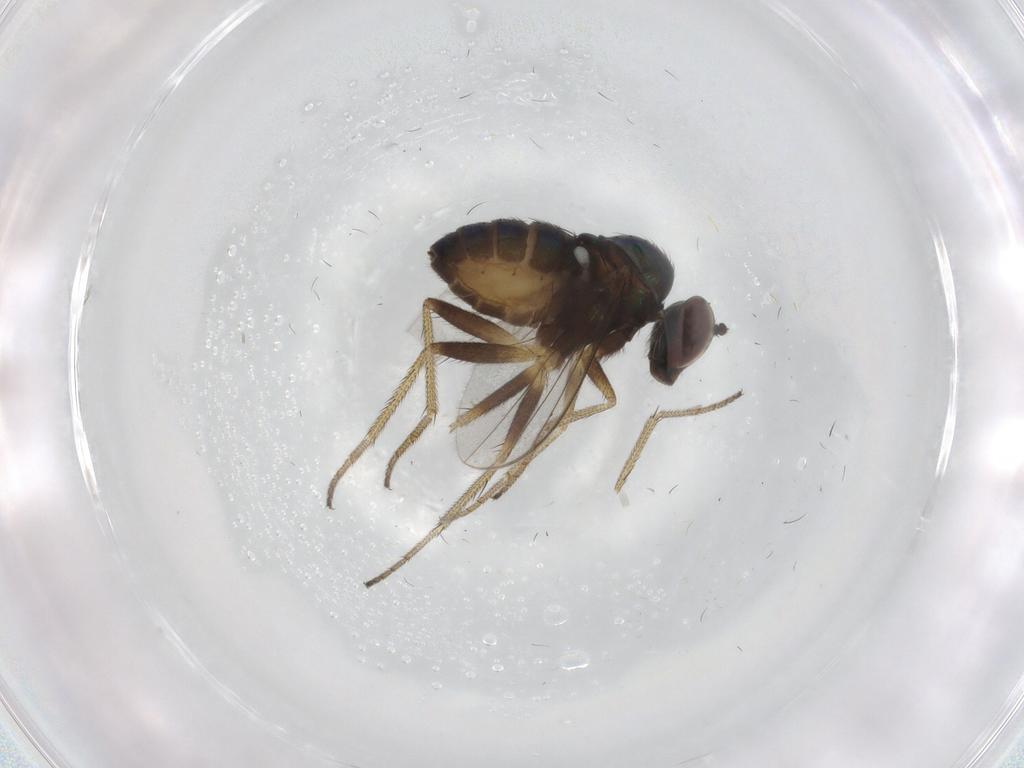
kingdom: Animalia
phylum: Arthropoda
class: Insecta
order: Diptera
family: Dolichopodidae
